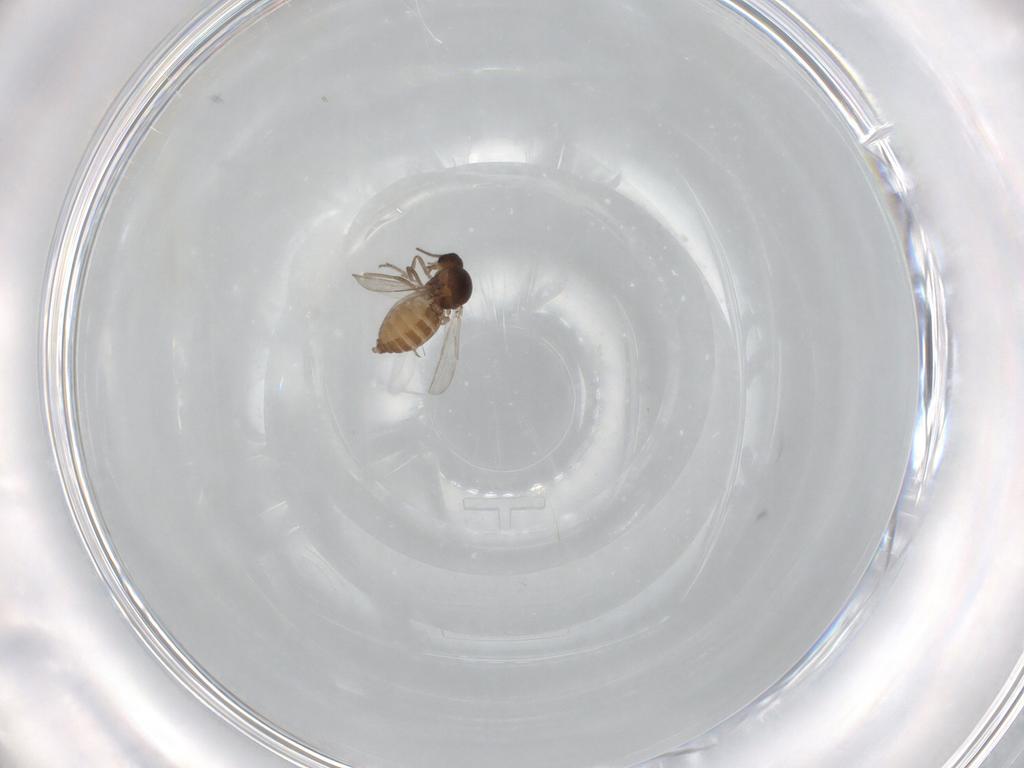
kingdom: Animalia
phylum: Arthropoda
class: Insecta
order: Diptera
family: Ceratopogonidae
